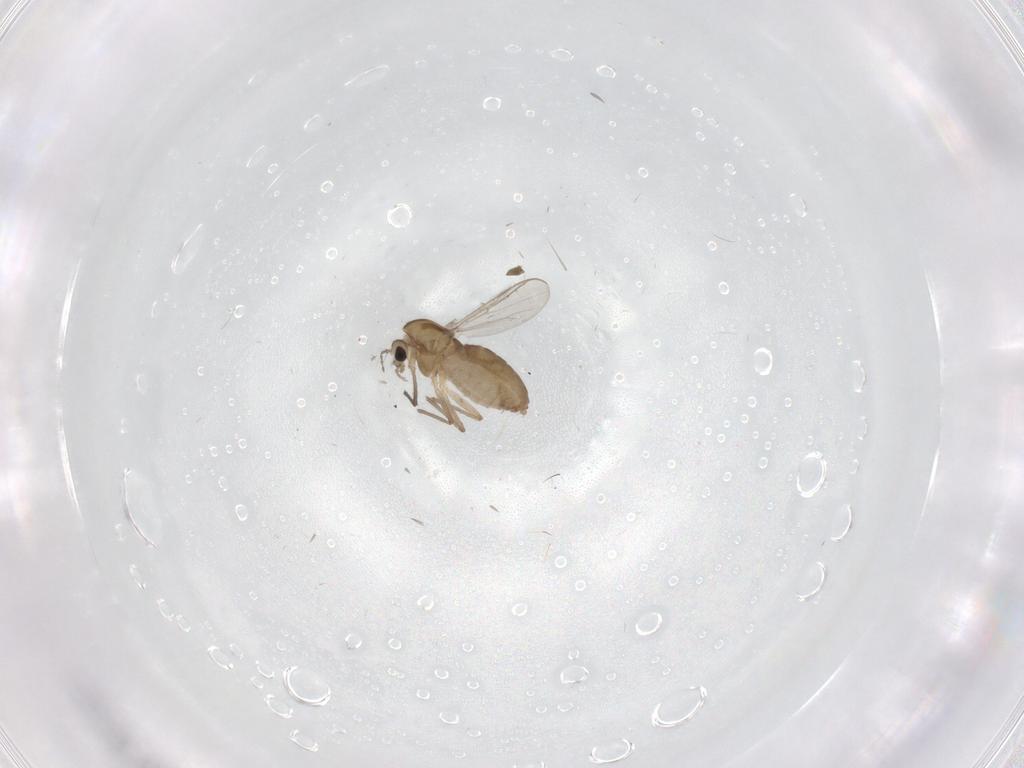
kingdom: Animalia
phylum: Arthropoda
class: Insecta
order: Diptera
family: Chironomidae
